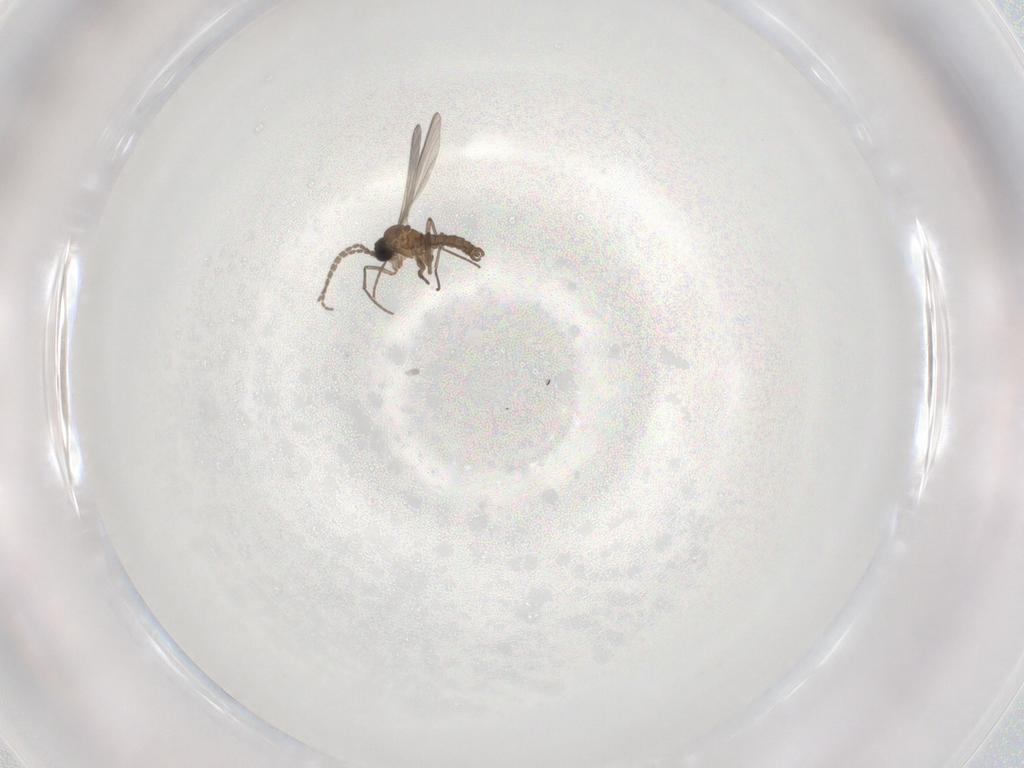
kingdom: Animalia
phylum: Arthropoda
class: Insecta
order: Diptera
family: Sciaridae
